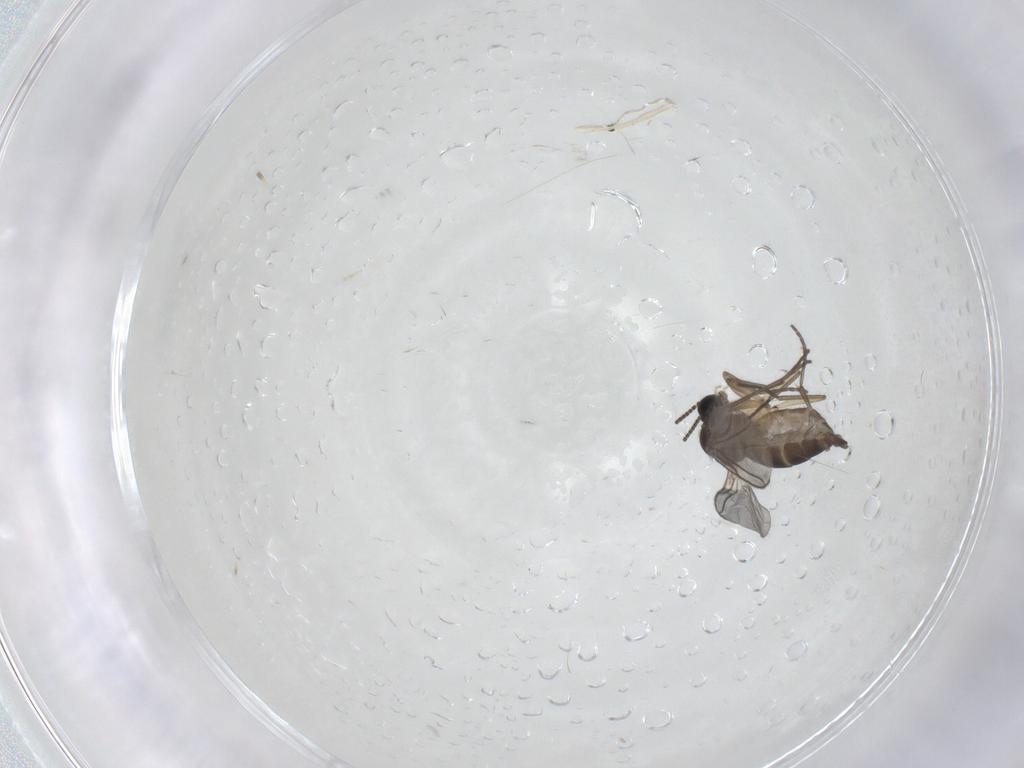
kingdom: Animalia
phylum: Arthropoda
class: Insecta
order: Diptera
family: Sciaridae
